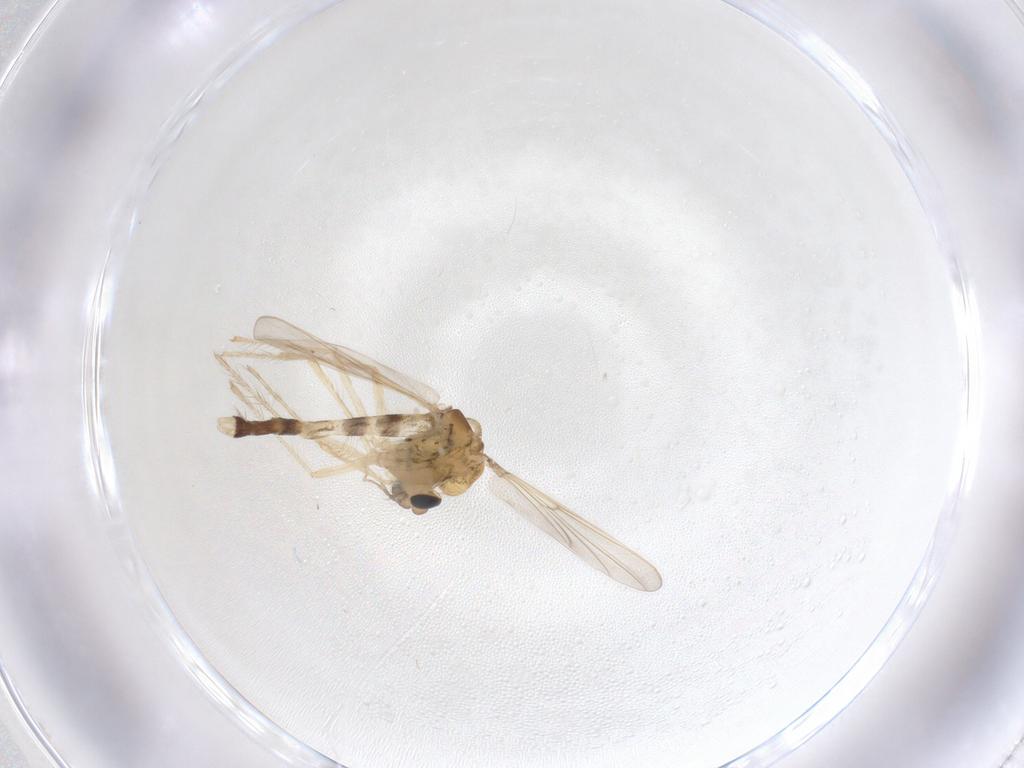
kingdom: Animalia
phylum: Arthropoda
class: Insecta
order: Diptera
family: Chironomidae
